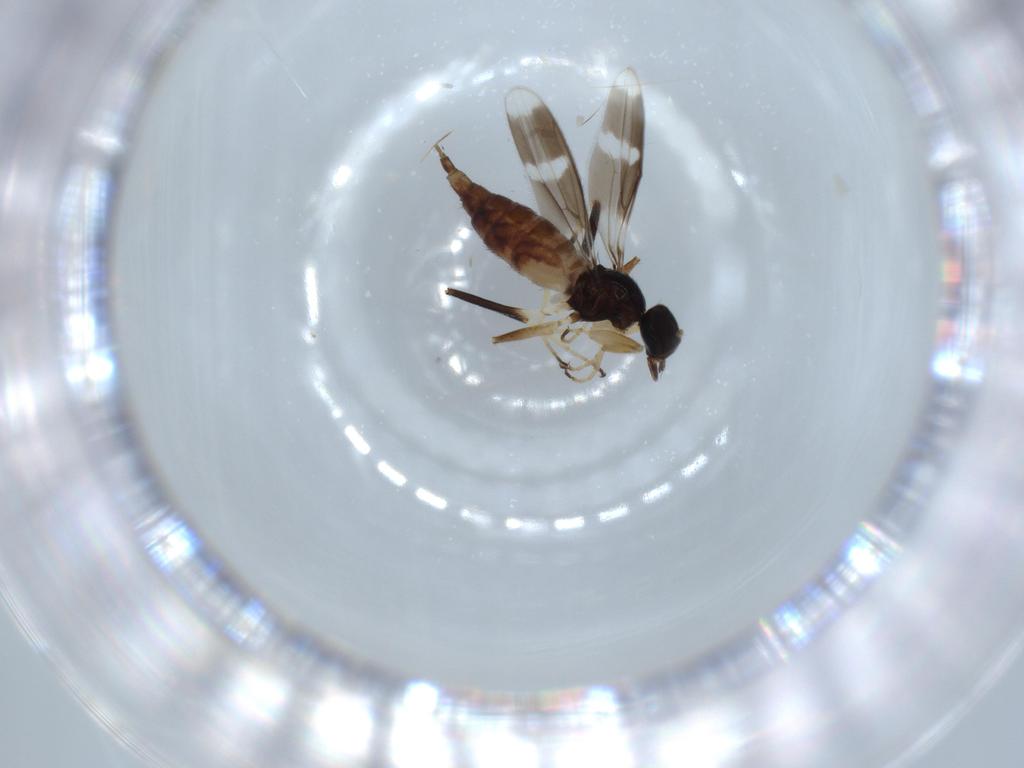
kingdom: Animalia
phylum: Arthropoda
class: Insecta
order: Diptera
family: Hybotidae
